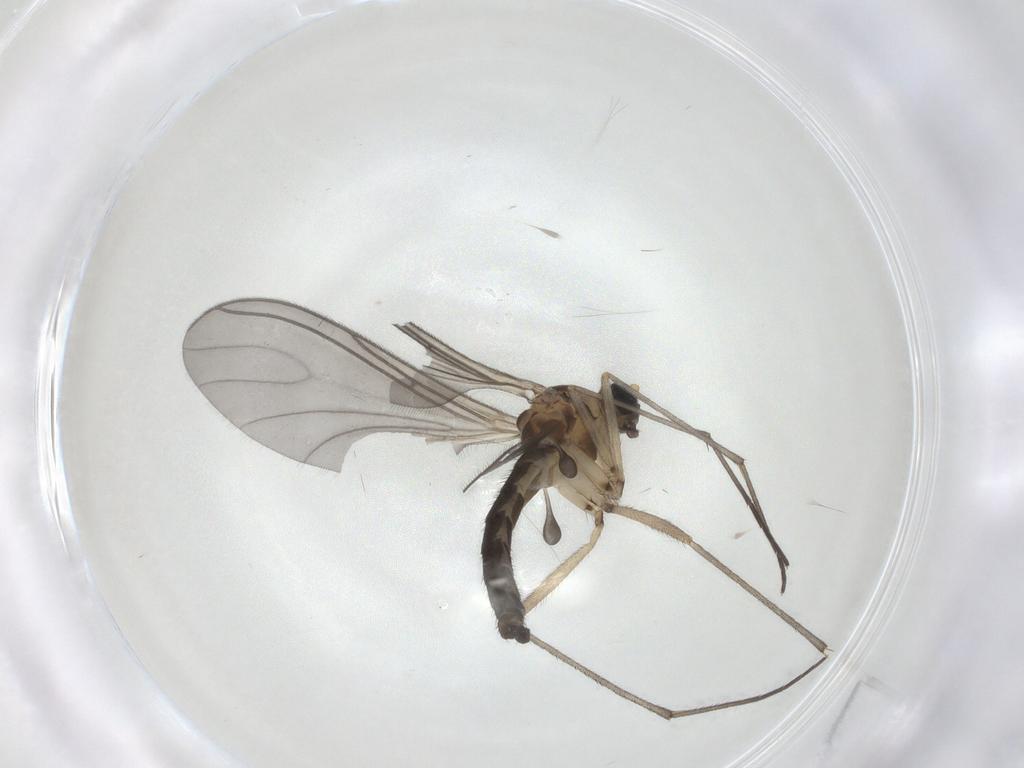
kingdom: Animalia
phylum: Arthropoda
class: Insecta
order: Diptera
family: Sciaridae
